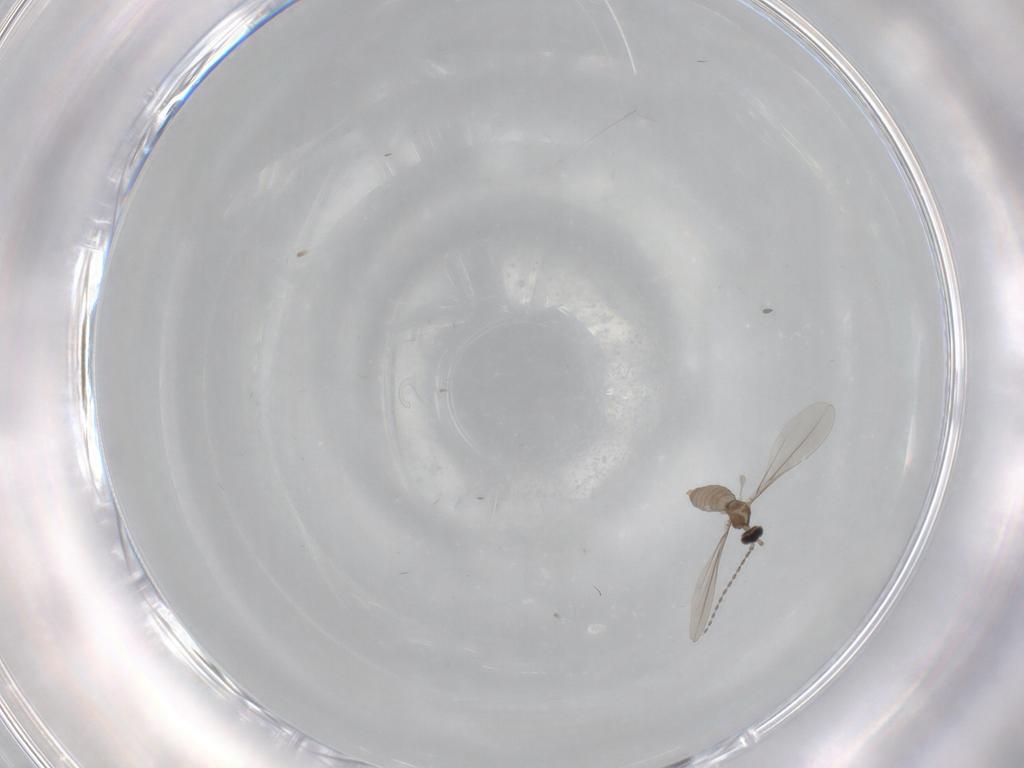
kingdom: Animalia
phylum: Arthropoda
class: Insecta
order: Diptera
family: Cecidomyiidae
